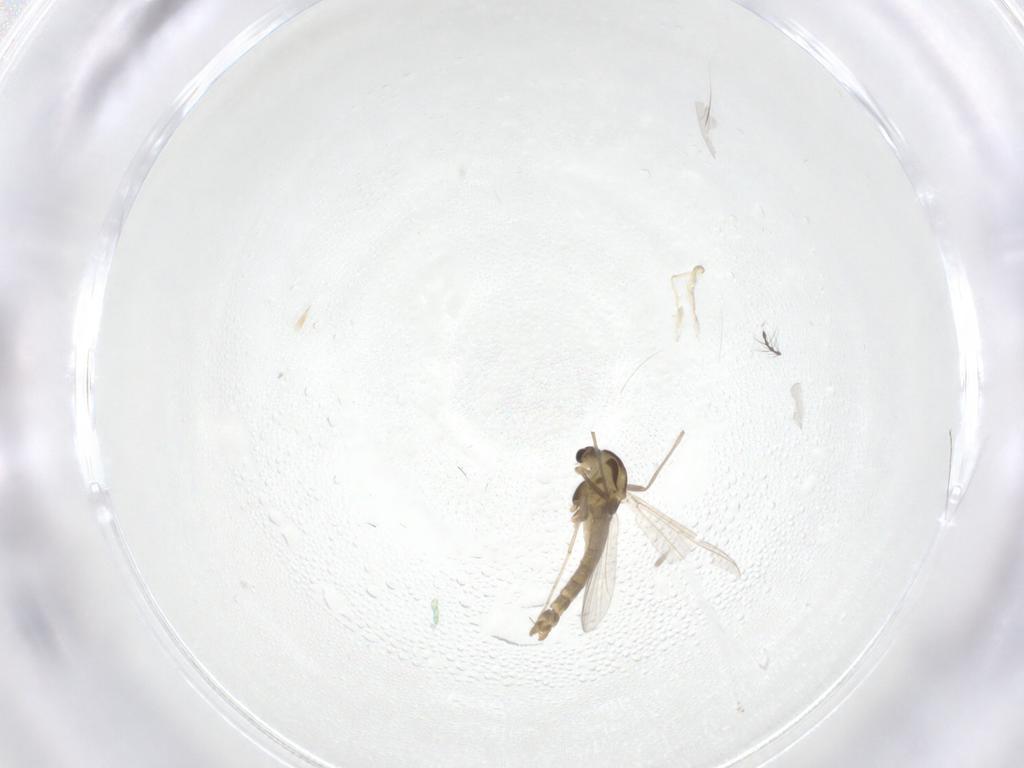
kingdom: Animalia
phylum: Arthropoda
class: Insecta
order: Diptera
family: Chironomidae
